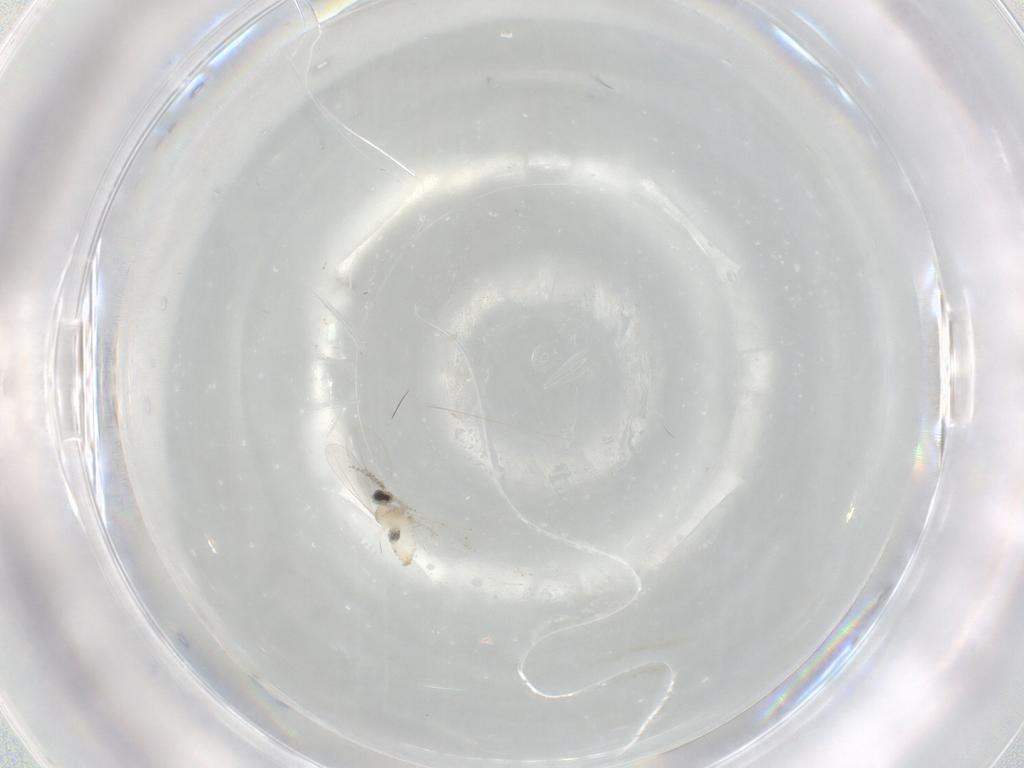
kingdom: Animalia
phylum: Arthropoda
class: Insecta
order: Diptera
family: Cecidomyiidae
